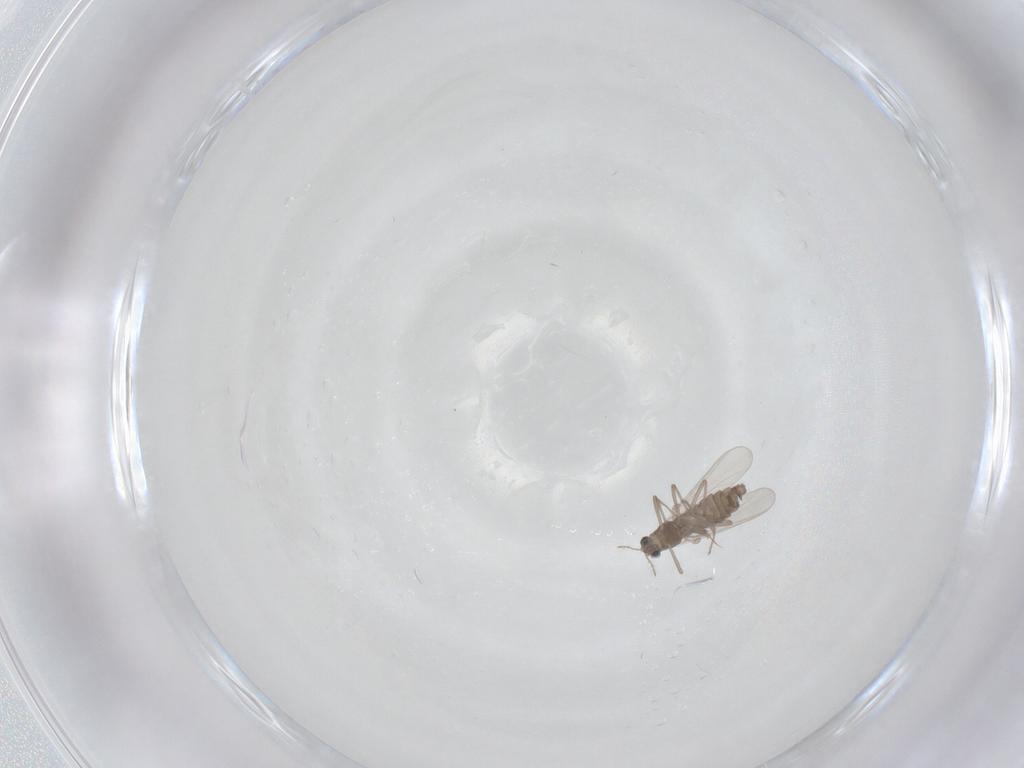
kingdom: Animalia
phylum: Arthropoda
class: Insecta
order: Diptera
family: Chironomidae
